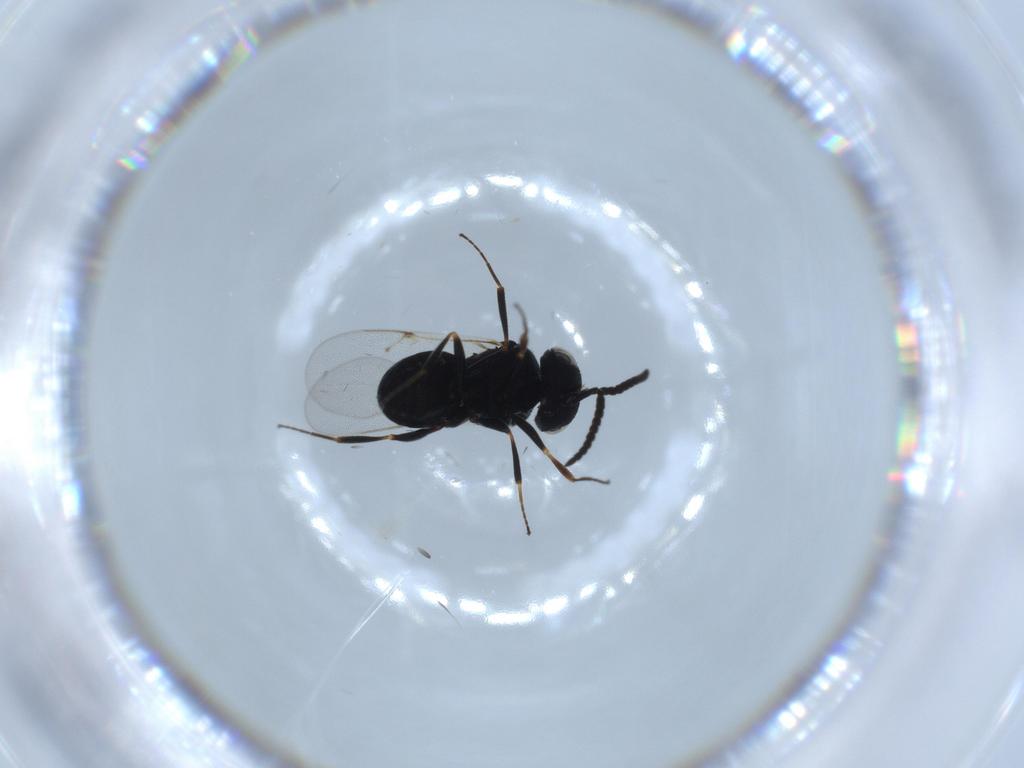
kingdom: Animalia
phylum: Arthropoda
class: Insecta
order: Hymenoptera
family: Scelionidae
